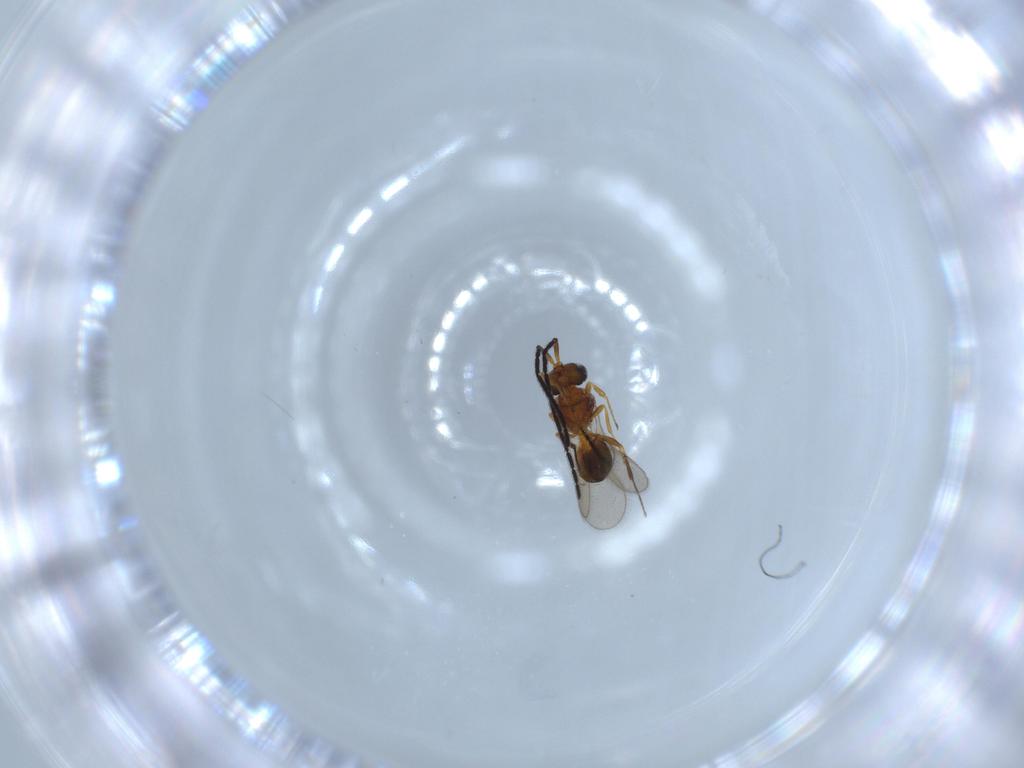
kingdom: Animalia
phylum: Arthropoda
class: Insecta
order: Hymenoptera
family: Scelionidae
